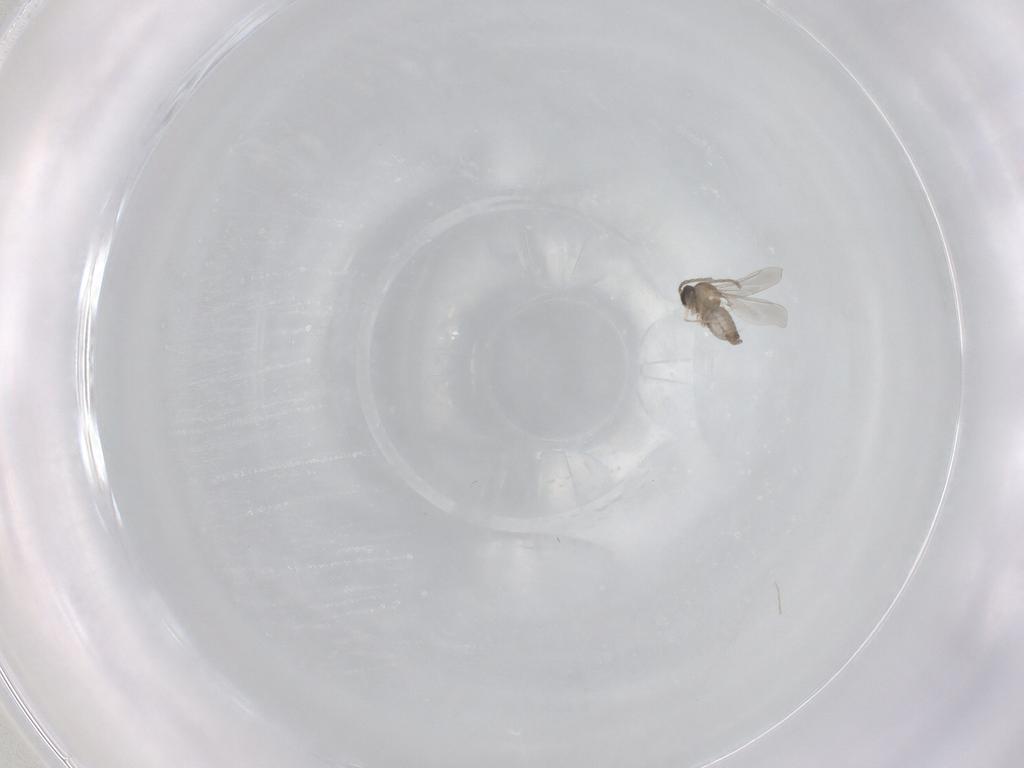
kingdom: Animalia
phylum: Arthropoda
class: Insecta
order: Diptera
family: Cecidomyiidae
